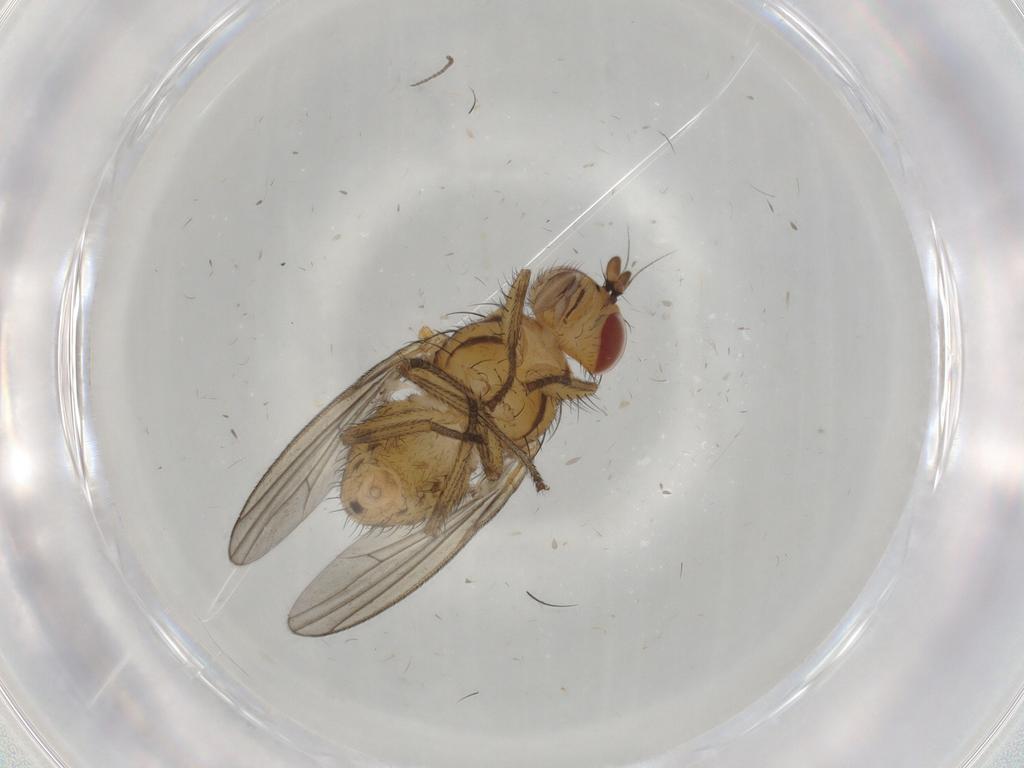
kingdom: Animalia
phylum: Arthropoda
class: Insecta
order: Diptera
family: Sciaridae
